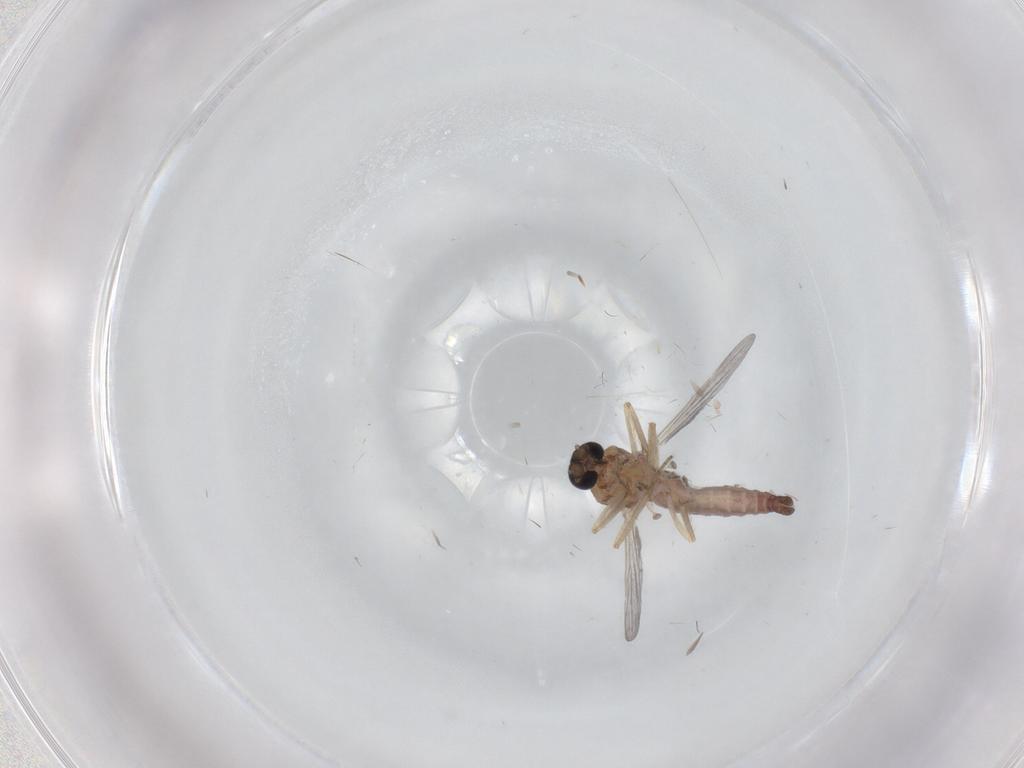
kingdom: Animalia
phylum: Arthropoda
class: Insecta
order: Diptera
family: Ceratopogonidae
